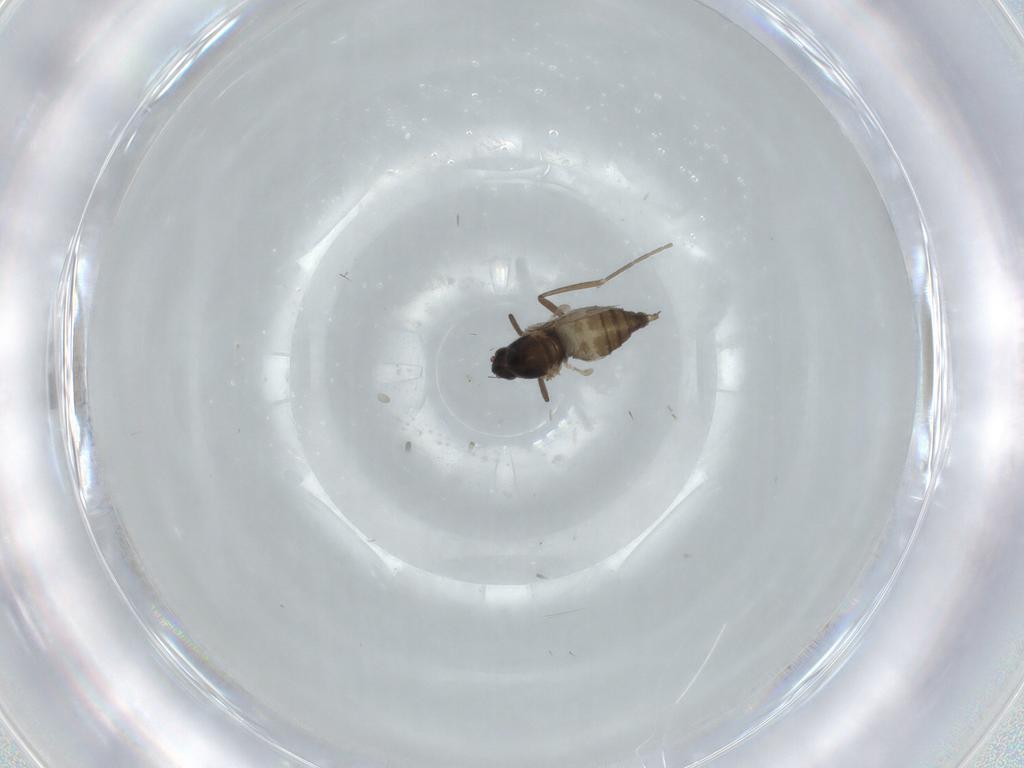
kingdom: Animalia
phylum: Arthropoda
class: Insecta
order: Diptera
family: Cecidomyiidae
